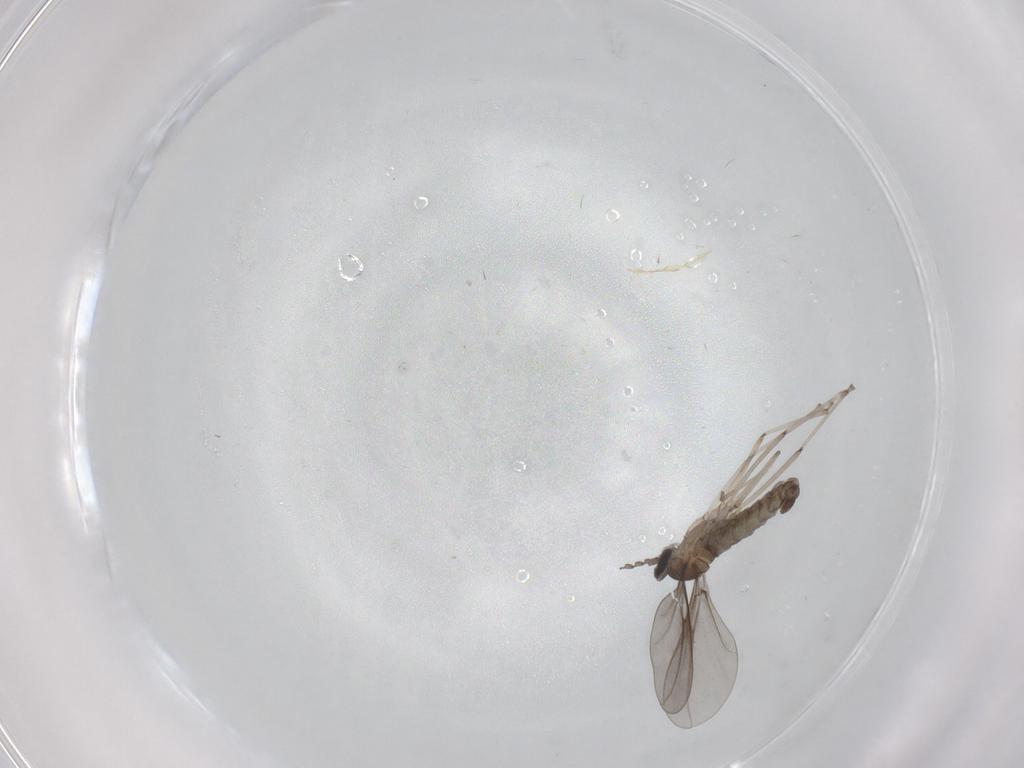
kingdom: Animalia
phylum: Arthropoda
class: Insecta
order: Diptera
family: Cecidomyiidae
